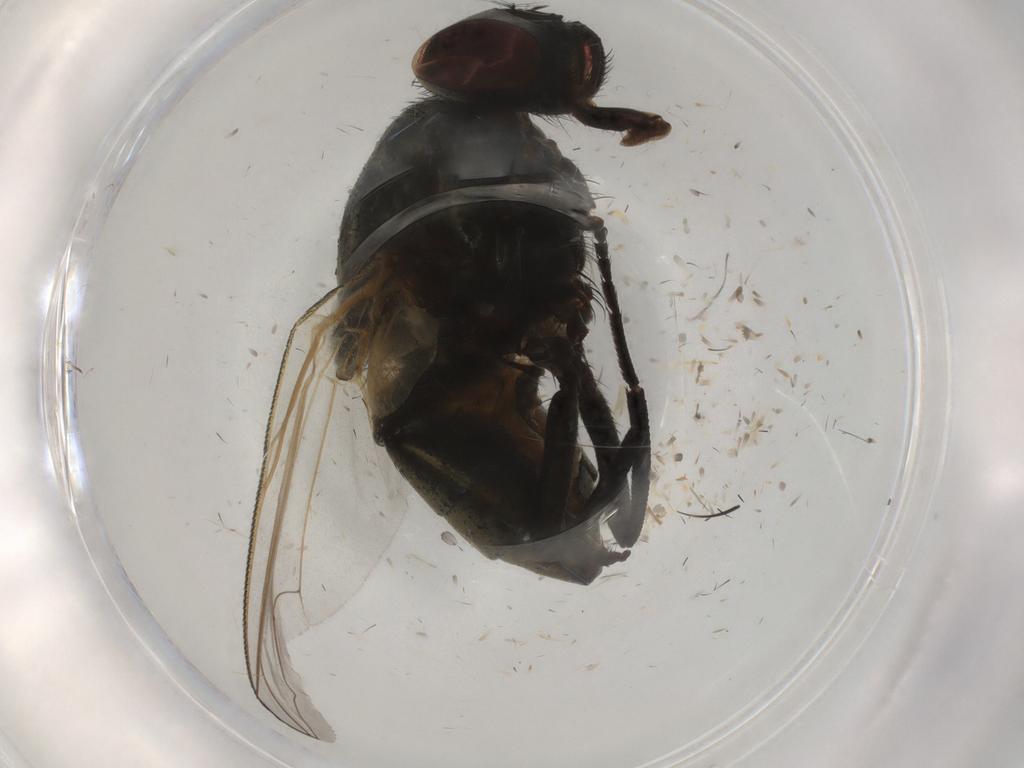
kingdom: Animalia
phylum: Arthropoda
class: Insecta
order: Diptera
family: Muscidae
